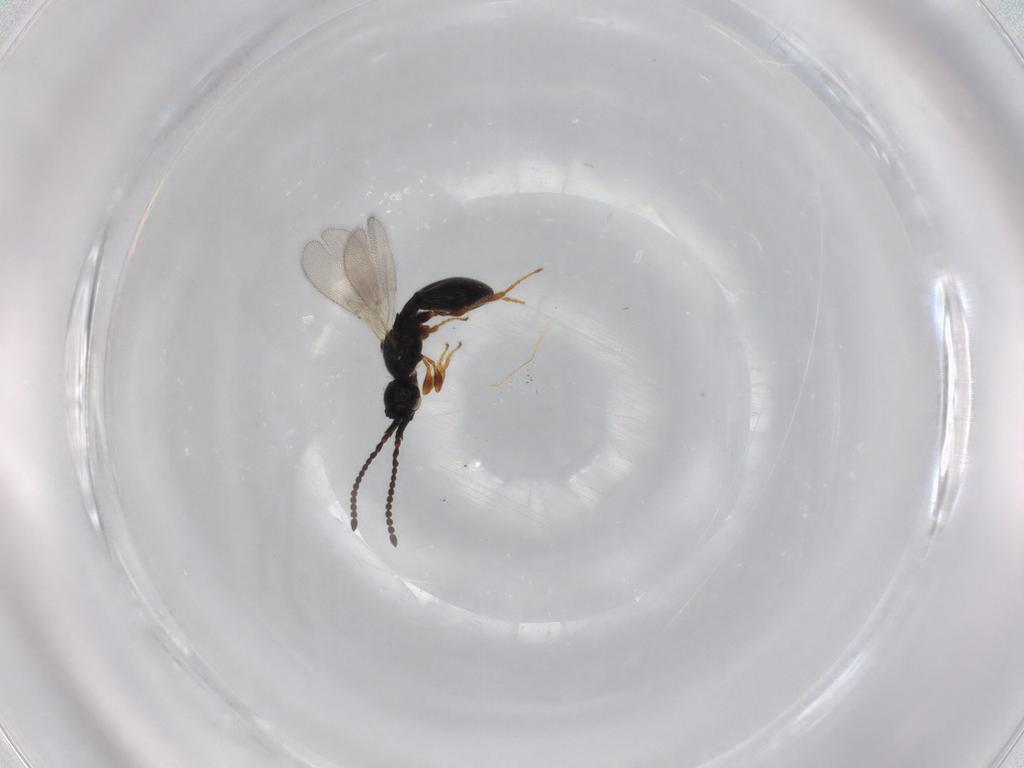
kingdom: Animalia
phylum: Arthropoda
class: Insecta
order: Hymenoptera
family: Diapriidae
